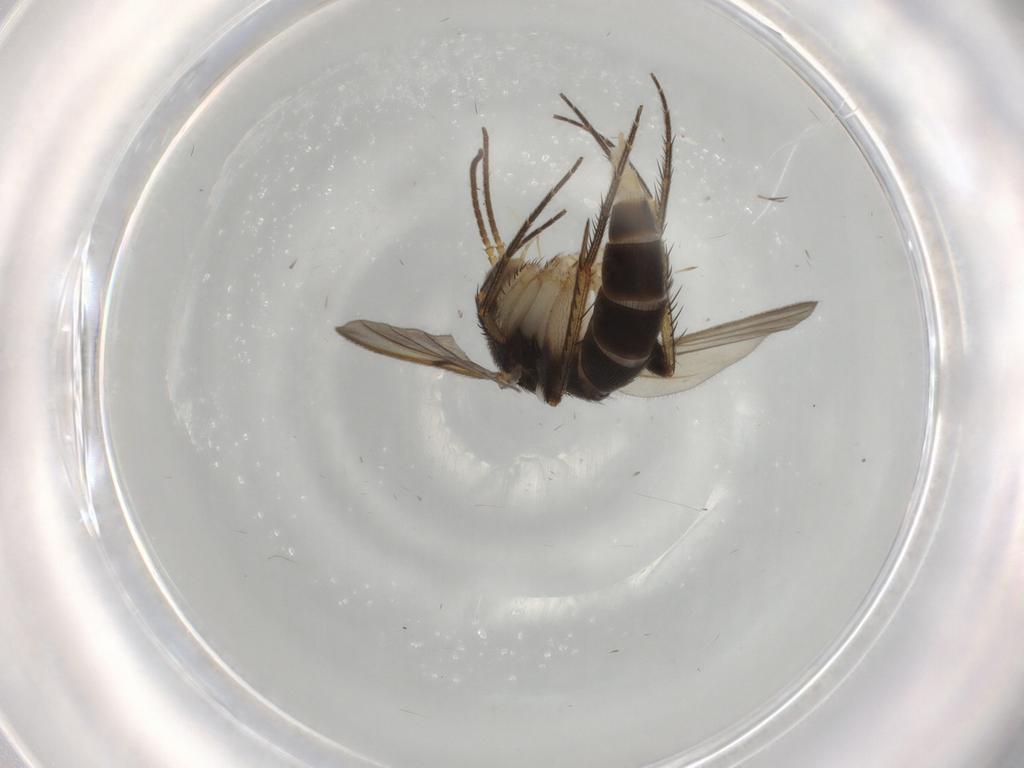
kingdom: Animalia
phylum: Arthropoda
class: Insecta
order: Diptera
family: Mycetophilidae
